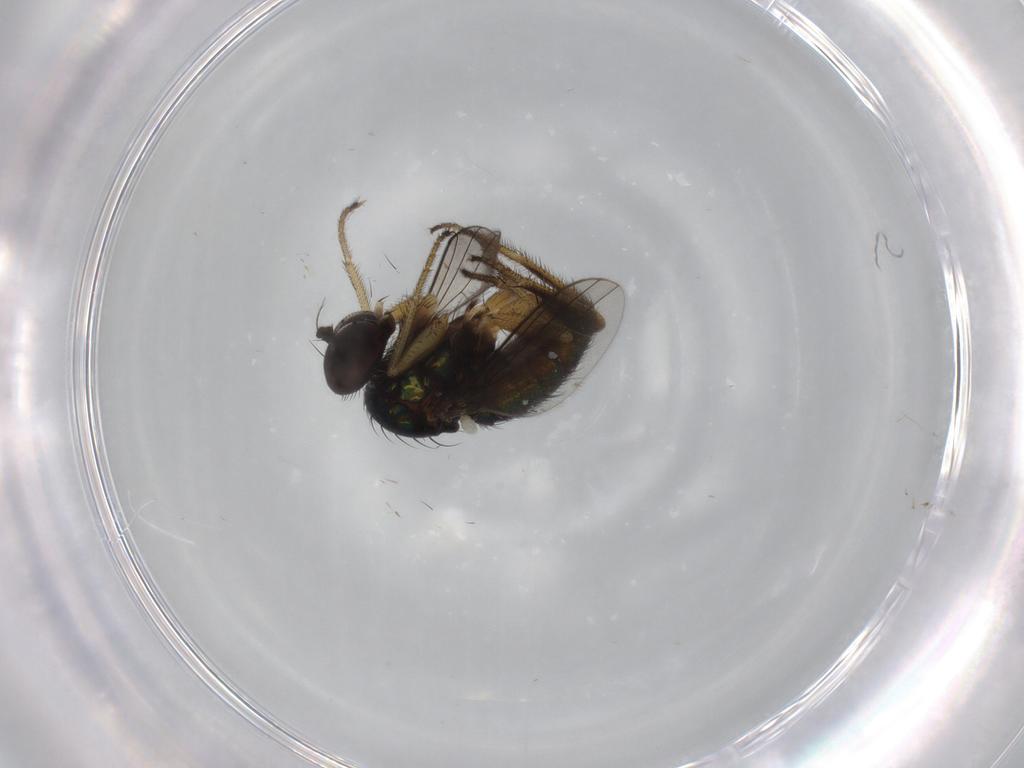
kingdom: Animalia
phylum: Arthropoda
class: Insecta
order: Diptera
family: Dolichopodidae
